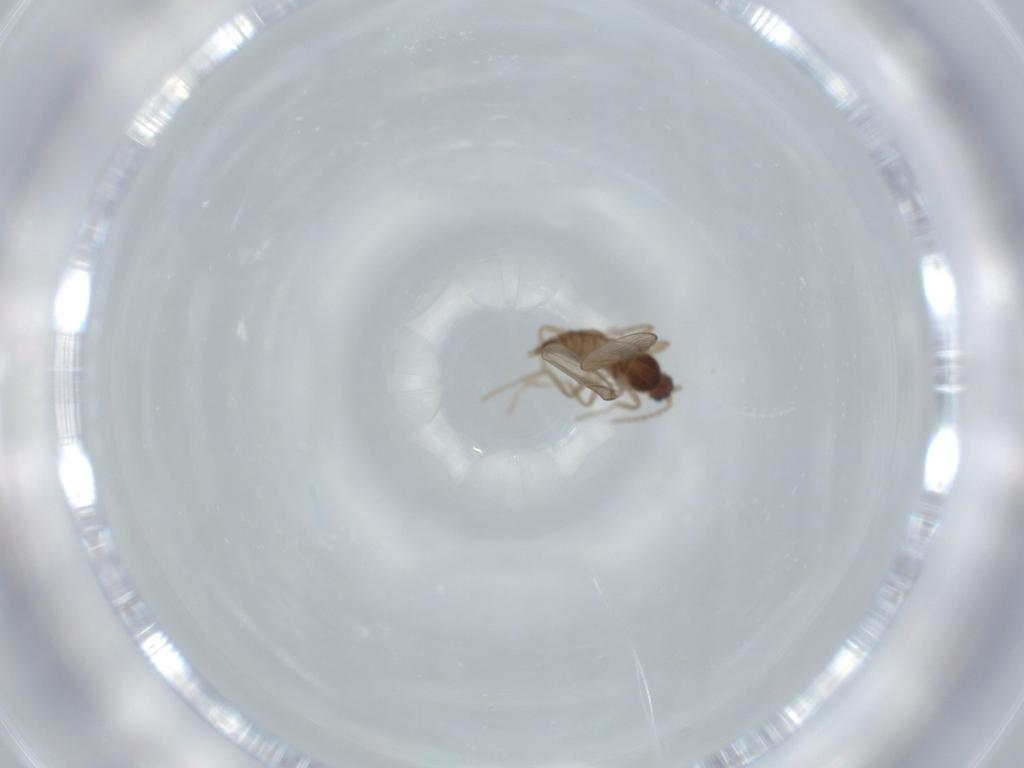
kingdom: Animalia
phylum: Arthropoda
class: Insecta
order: Diptera
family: Cecidomyiidae
